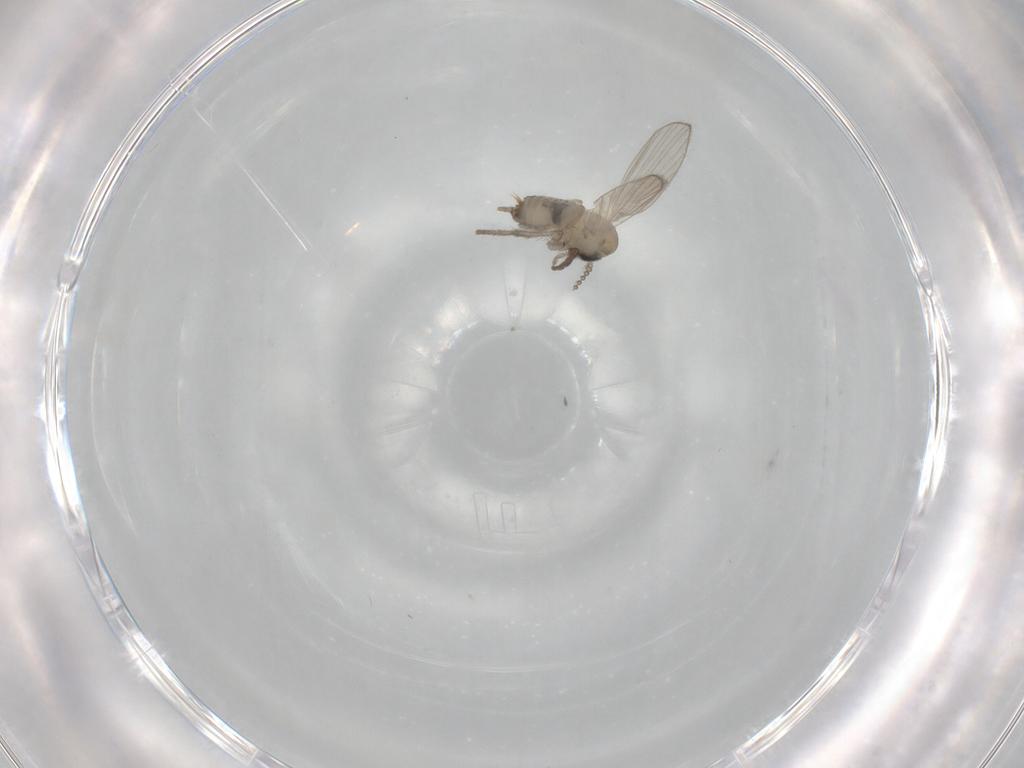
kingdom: Animalia
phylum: Arthropoda
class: Insecta
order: Diptera
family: Psychodidae
